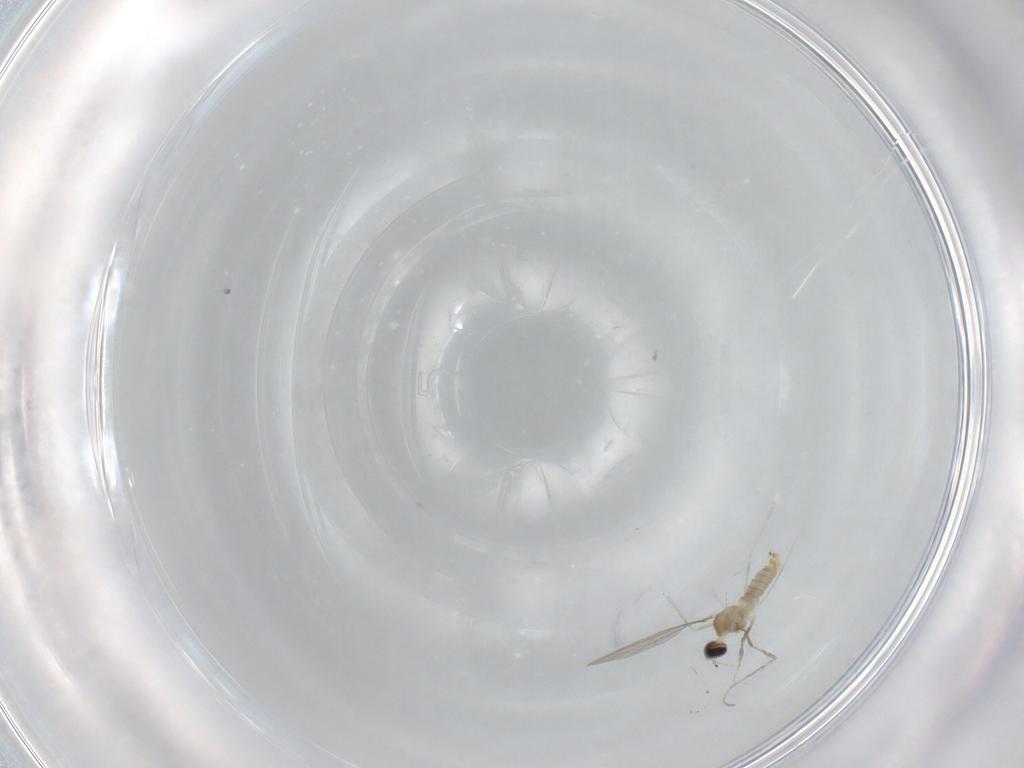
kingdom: Animalia
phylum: Arthropoda
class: Insecta
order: Diptera
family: Cecidomyiidae
